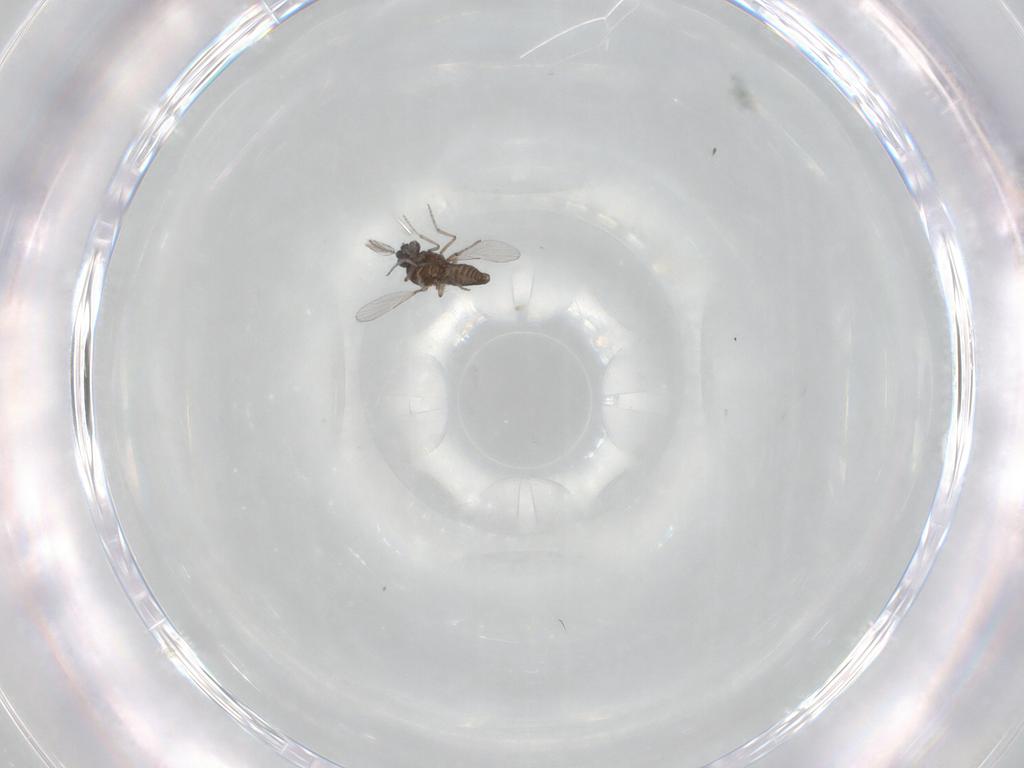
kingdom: Animalia
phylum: Arthropoda
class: Insecta
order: Diptera
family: Ceratopogonidae
